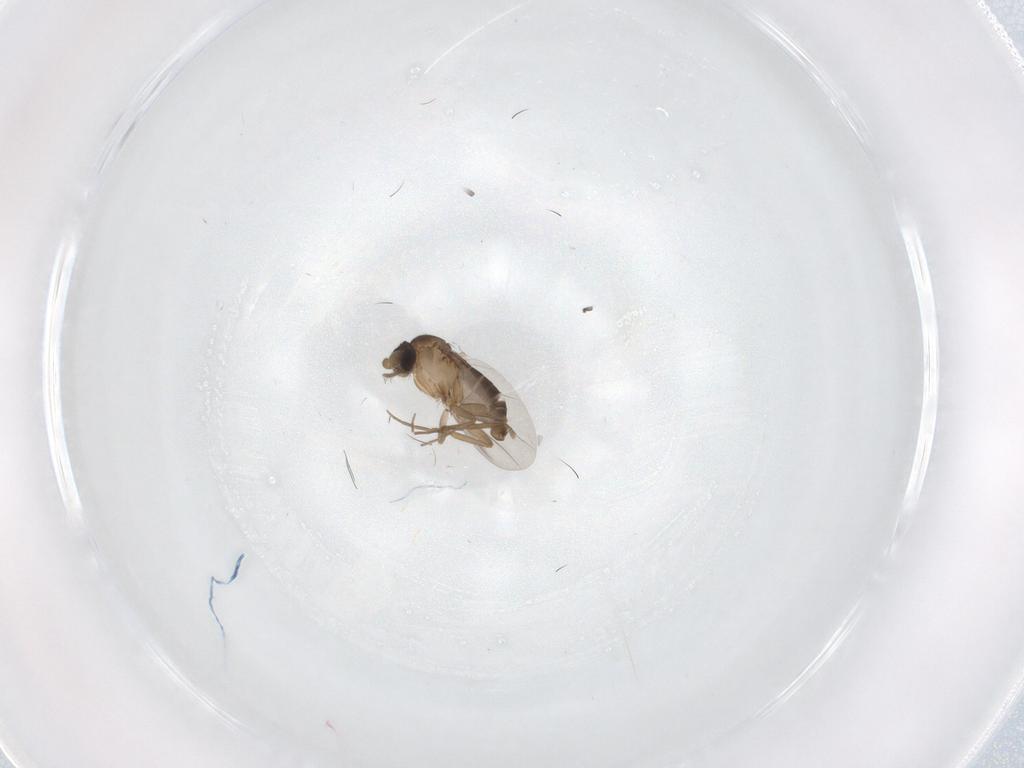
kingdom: Animalia
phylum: Arthropoda
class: Insecta
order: Diptera
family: Phoridae
